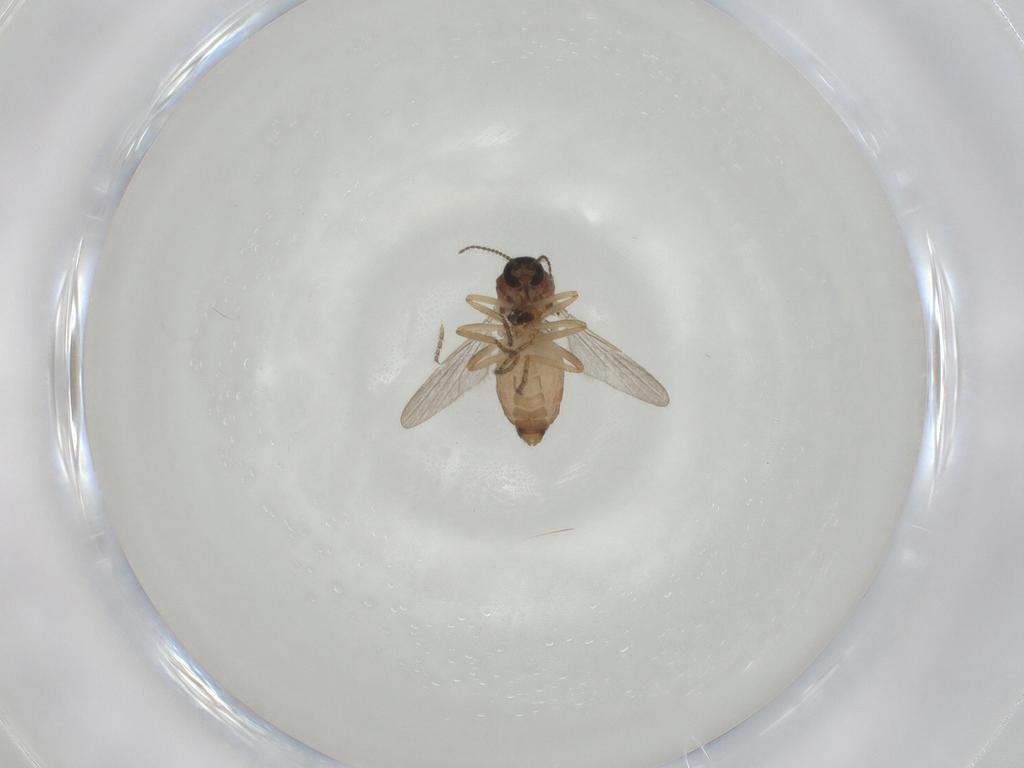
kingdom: Animalia
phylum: Arthropoda
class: Insecta
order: Diptera
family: Ceratopogonidae
